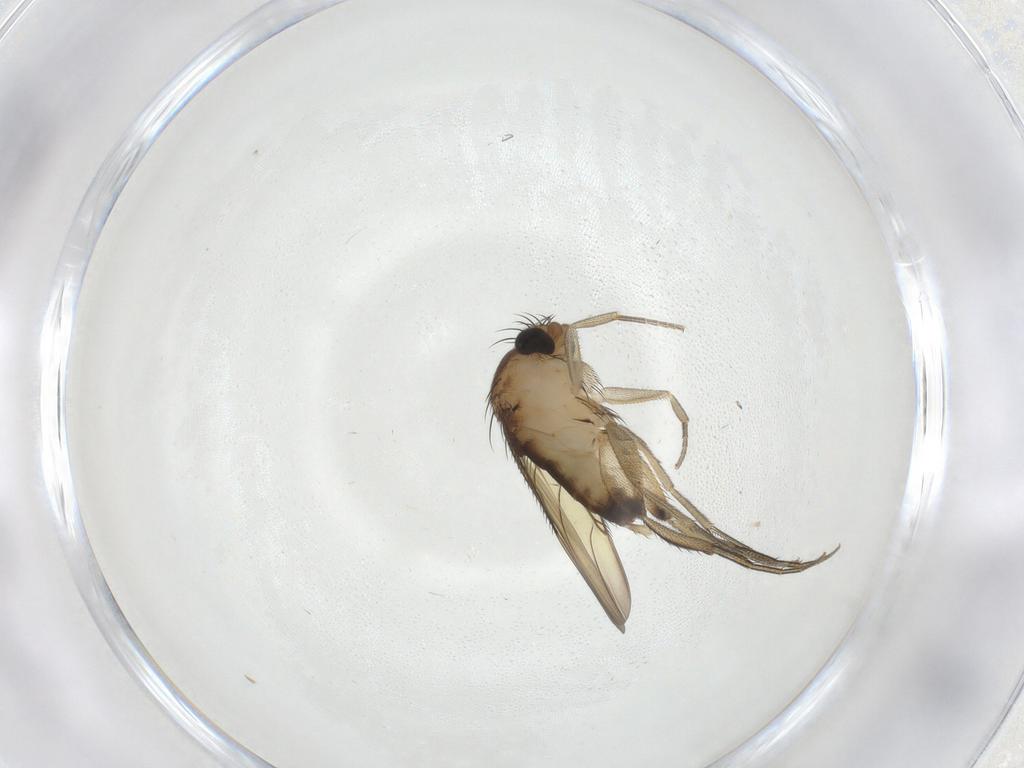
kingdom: Animalia
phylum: Arthropoda
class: Insecta
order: Diptera
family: Phoridae
